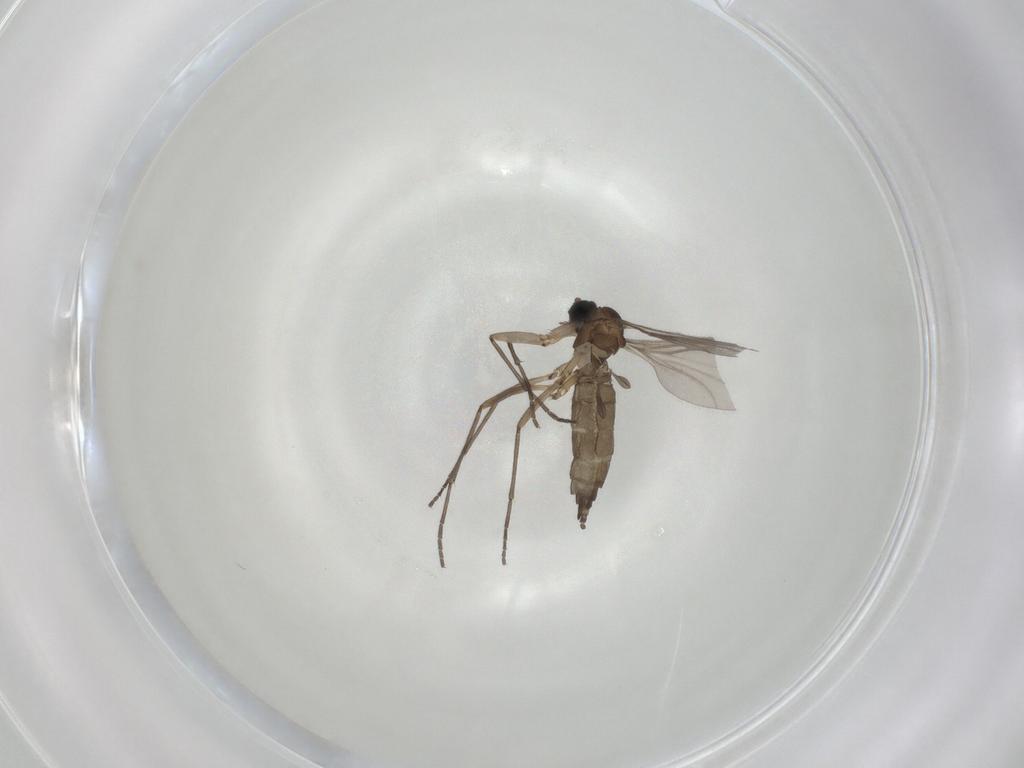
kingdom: Animalia
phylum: Arthropoda
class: Insecta
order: Diptera
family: Sciaridae
